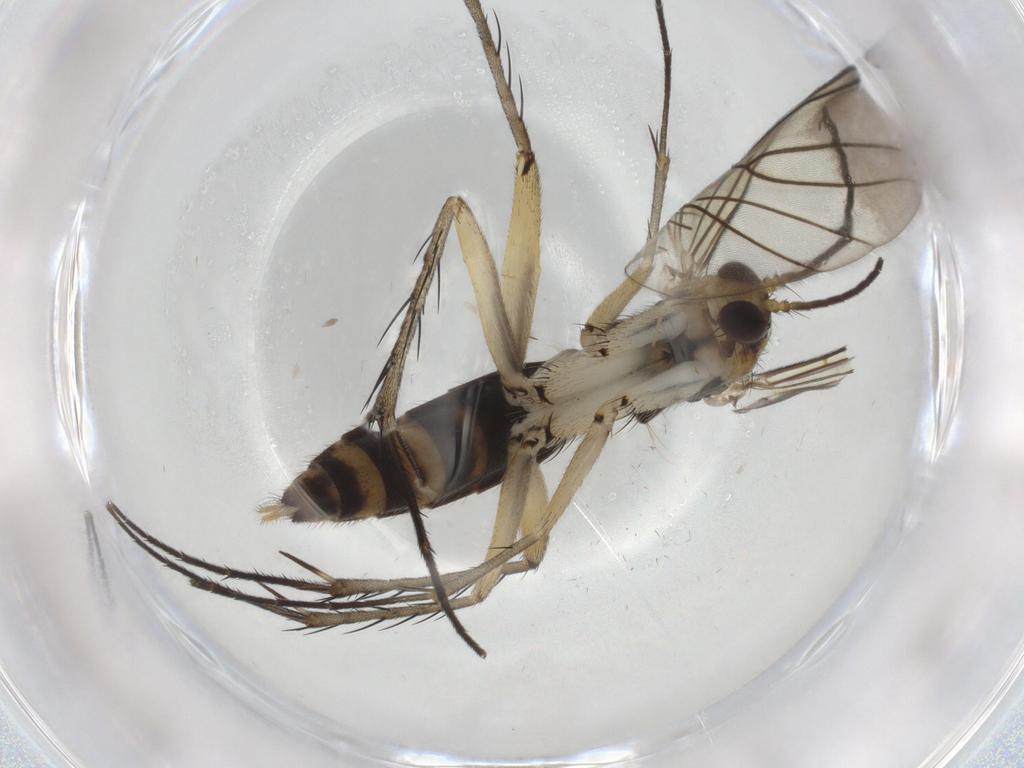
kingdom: Animalia
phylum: Arthropoda
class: Insecta
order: Diptera
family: Mycetophilidae
